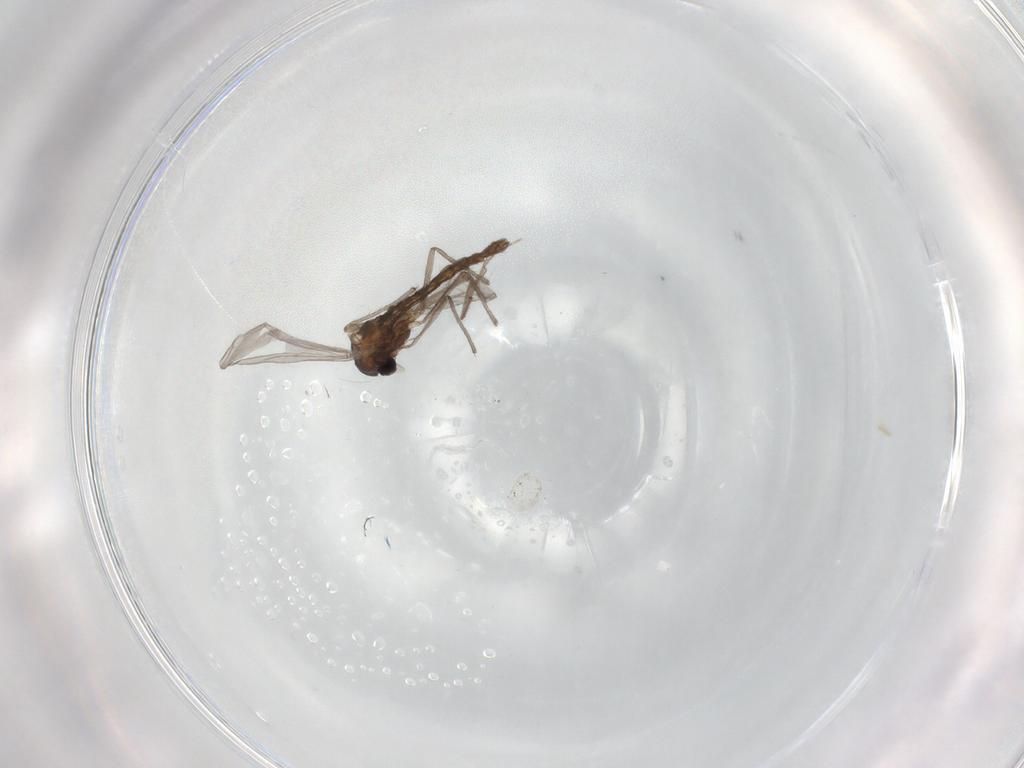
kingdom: Animalia
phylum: Arthropoda
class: Insecta
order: Diptera
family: Chironomidae
